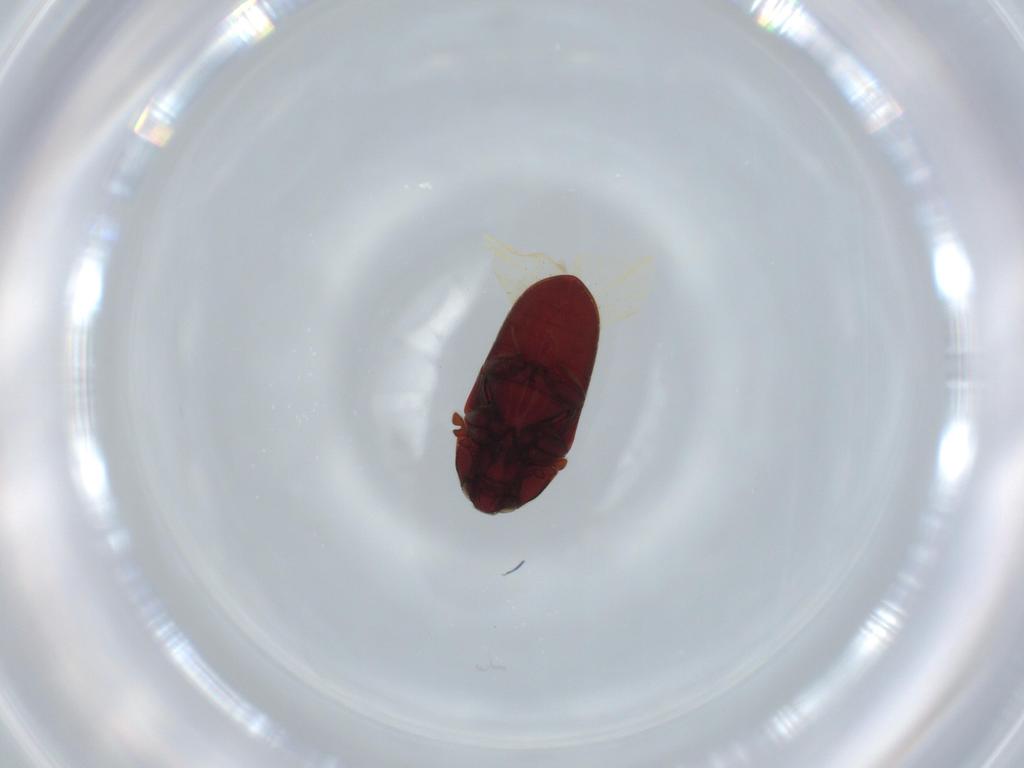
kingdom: Animalia
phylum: Arthropoda
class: Insecta
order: Coleoptera
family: Throscidae
